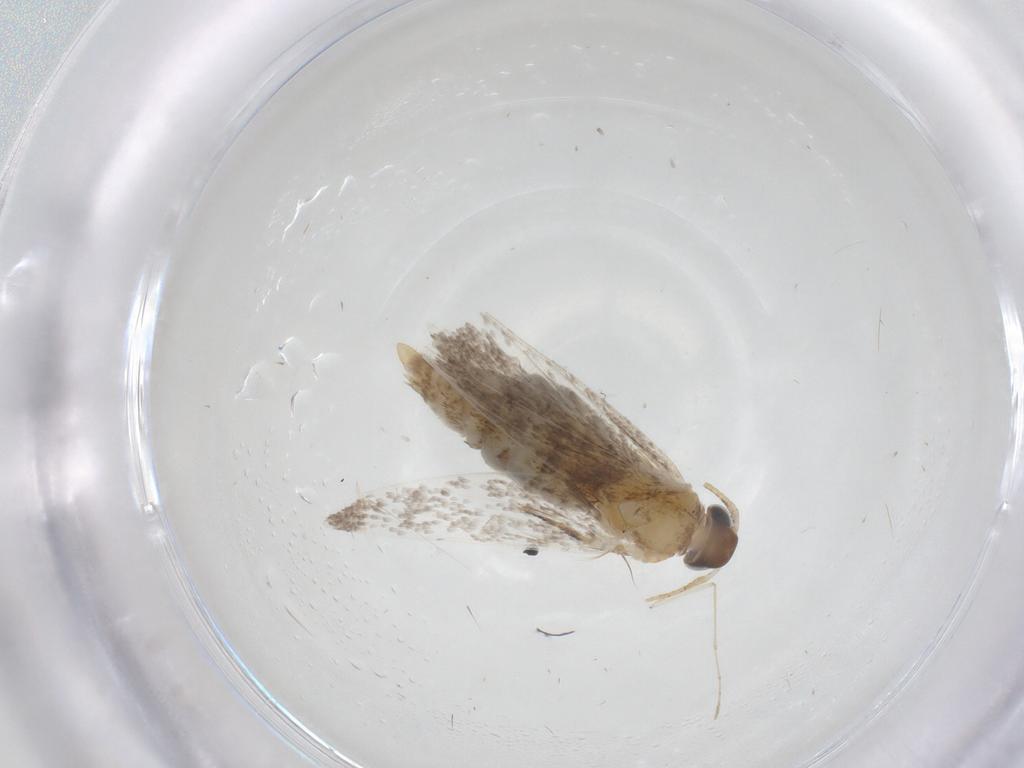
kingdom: Animalia
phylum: Arthropoda
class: Insecta
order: Lepidoptera
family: Oecophoridae
